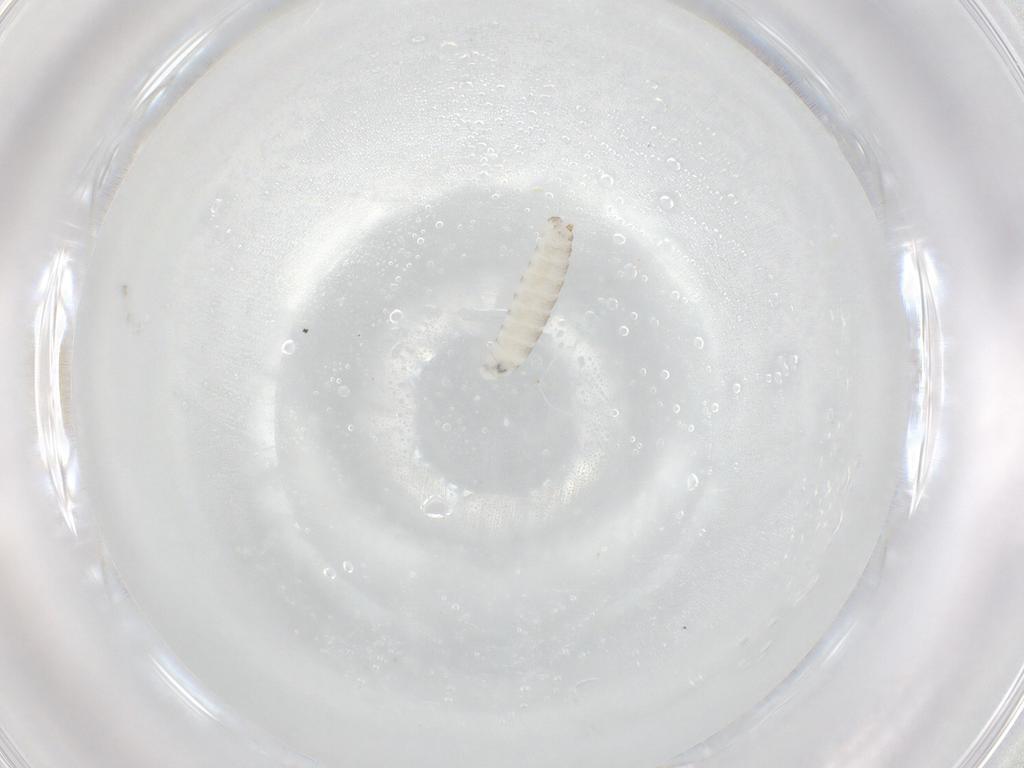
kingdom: Animalia
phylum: Arthropoda
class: Insecta
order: Diptera
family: Scathophagidae
